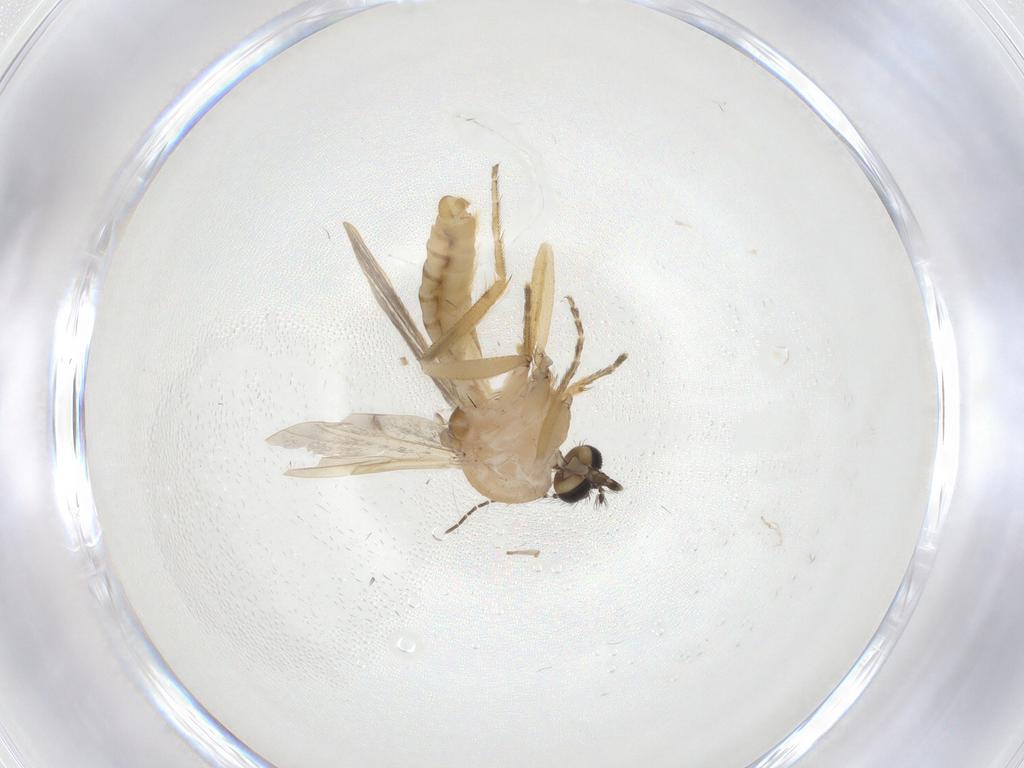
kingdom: Animalia
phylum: Arthropoda
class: Insecta
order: Diptera
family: Ceratopogonidae
